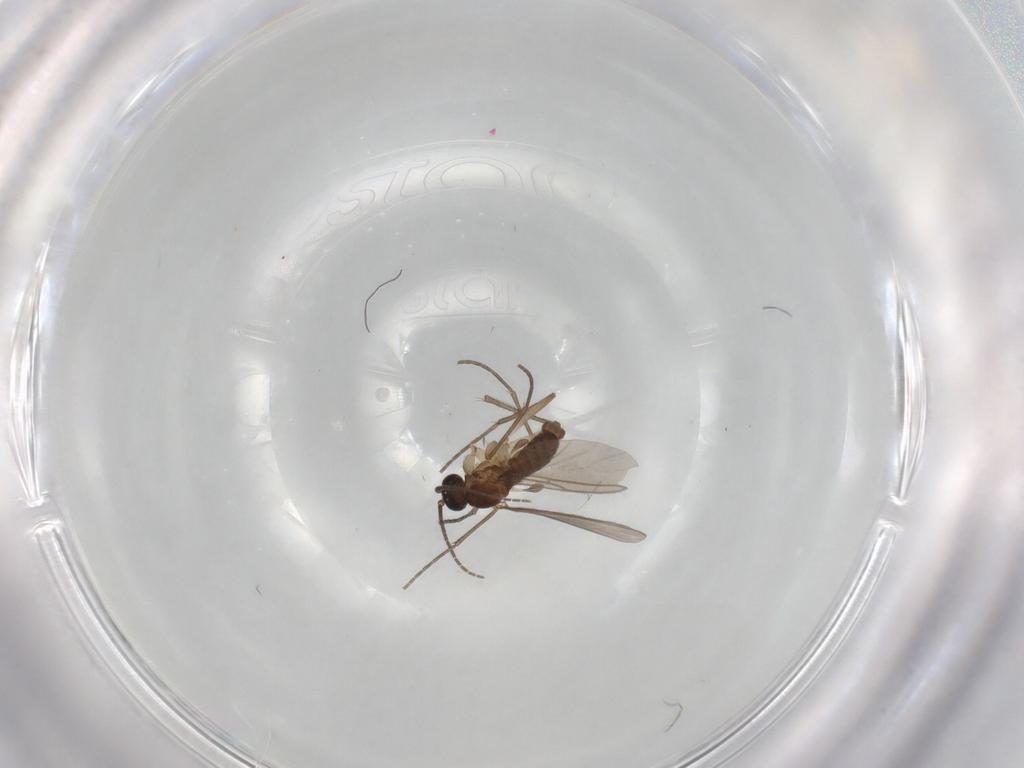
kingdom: Animalia
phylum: Arthropoda
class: Insecta
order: Diptera
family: Sciaridae
